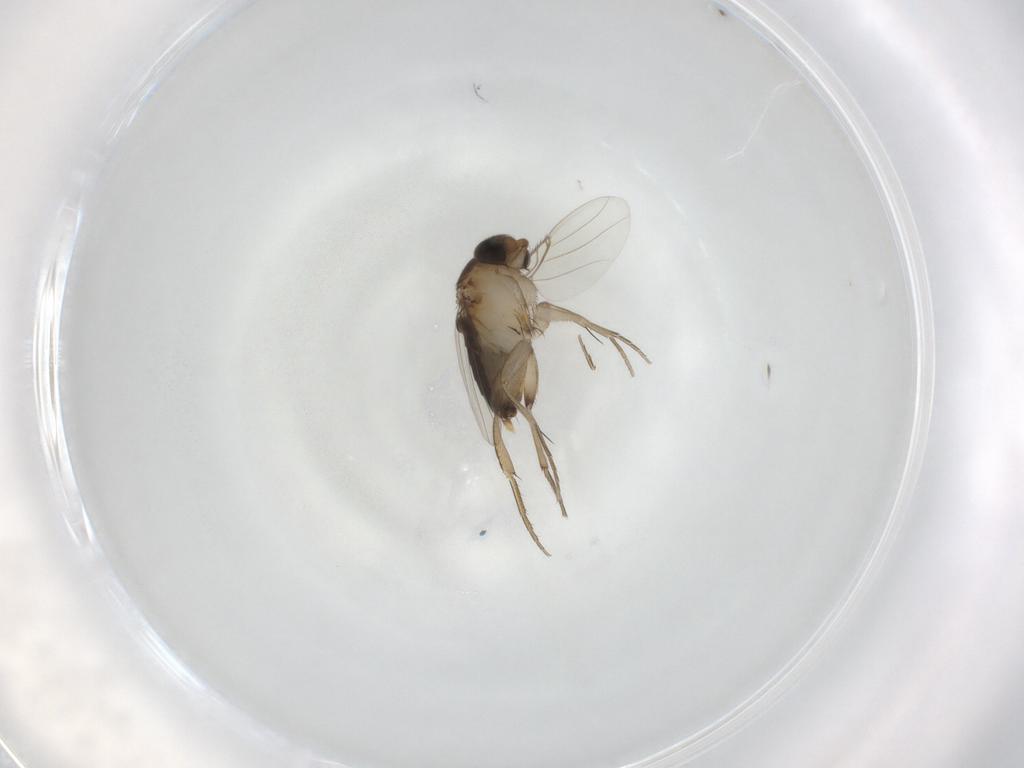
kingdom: Animalia
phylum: Arthropoda
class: Insecta
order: Diptera
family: Phoridae
